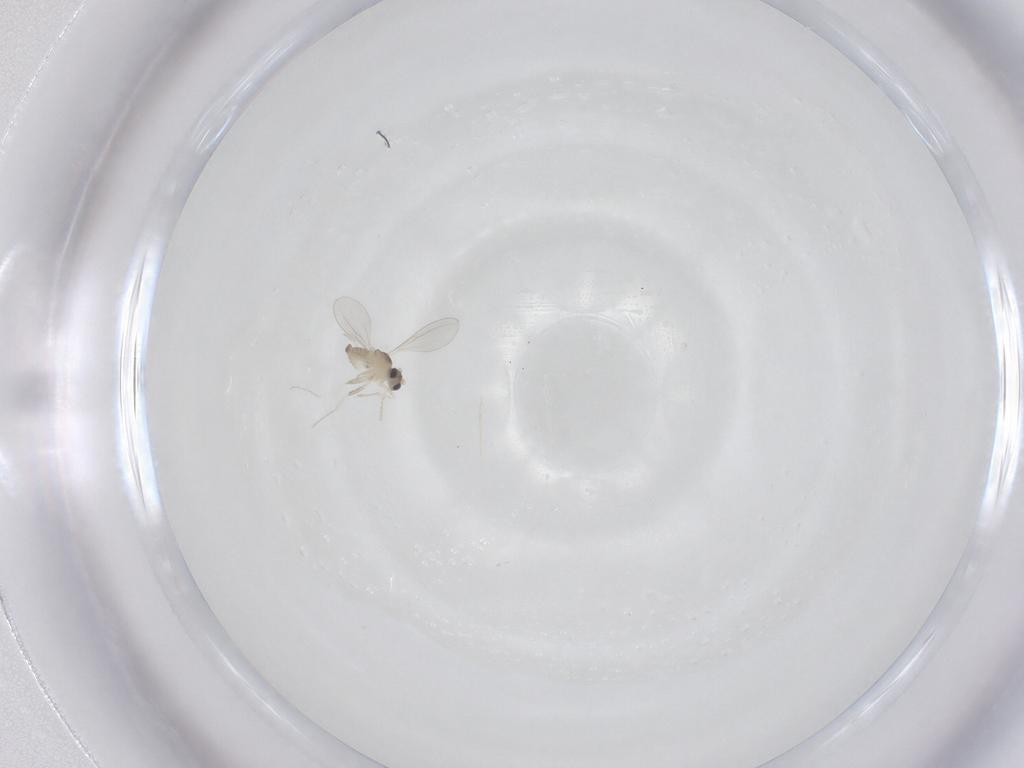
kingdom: Animalia
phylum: Arthropoda
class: Insecta
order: Diptera
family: Cecidomyiidae
